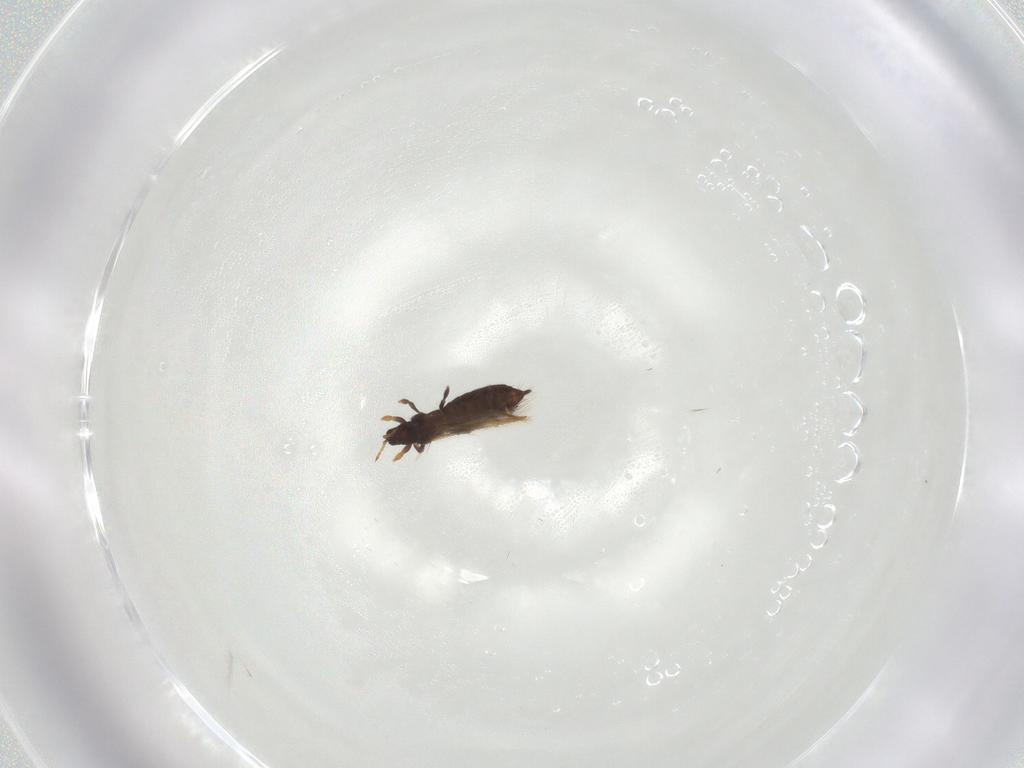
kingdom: Animalia
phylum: Arthropoda
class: Insecta
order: Thysanoptera
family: Thripidae
